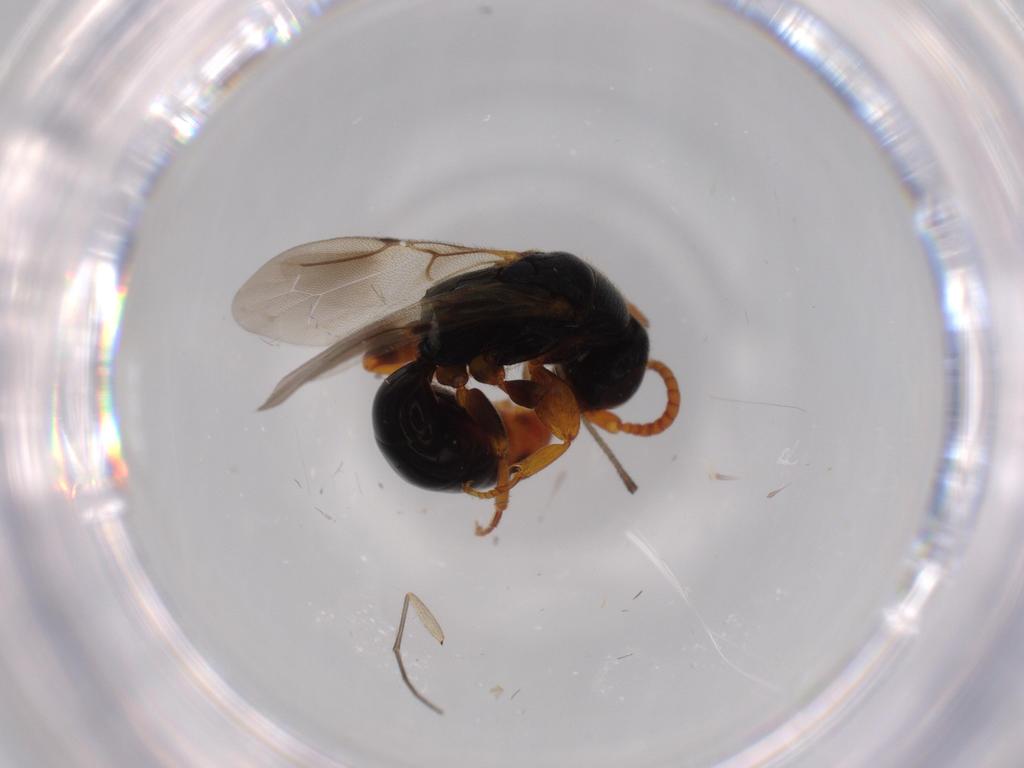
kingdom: Animalia
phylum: Arthropoda
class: Insecta
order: Hymenoptera
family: Bethylidae
